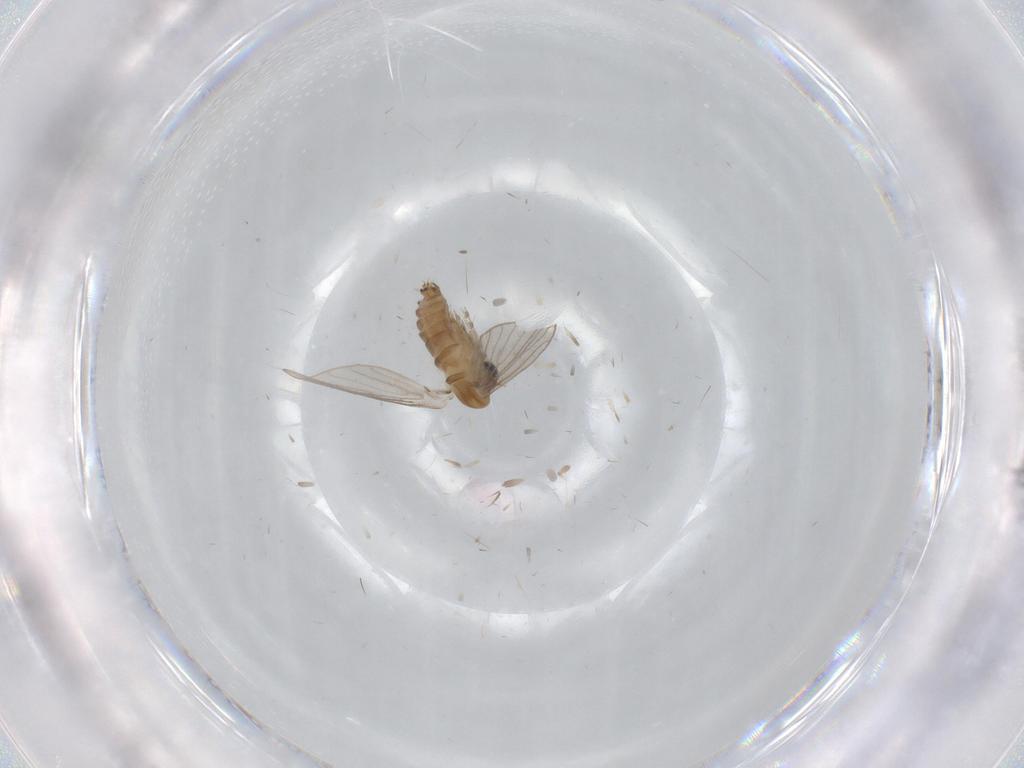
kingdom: Animalia
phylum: Arthropoda
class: Insecta
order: Diptera
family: Psychodidae
